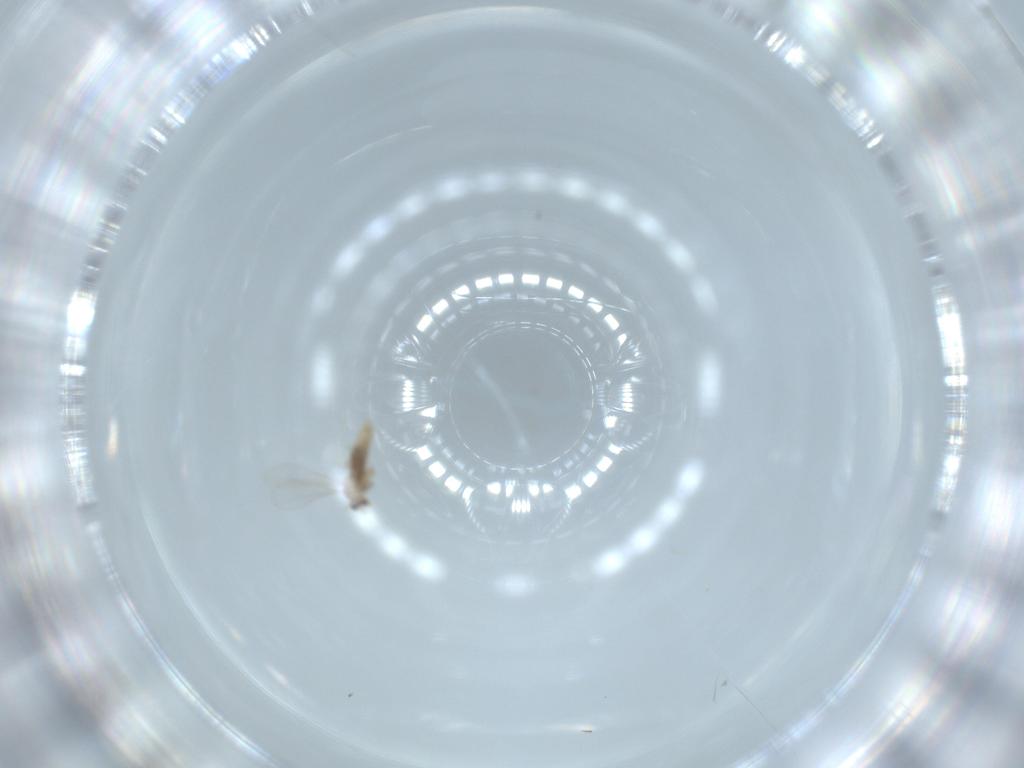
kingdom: Animalia
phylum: Arthropoda
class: Insecta
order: Diptera
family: Cecidomyiidae
